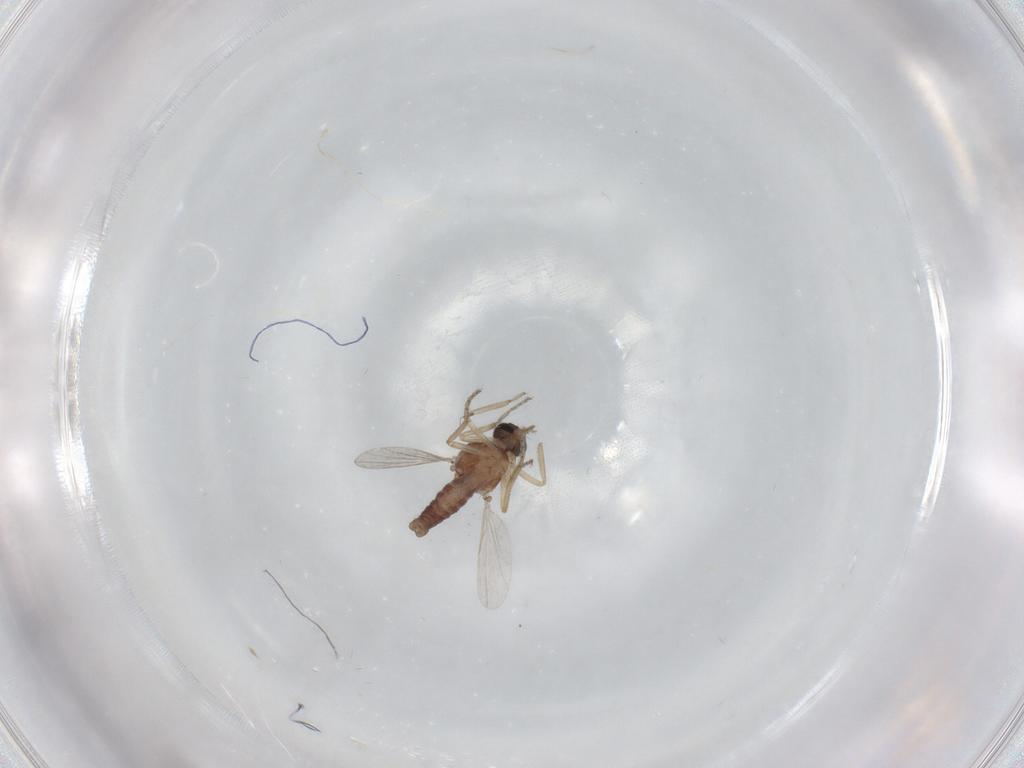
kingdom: Animalia
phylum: Arthropoda
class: Insecta
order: Diptera
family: Ceratopogonidae
